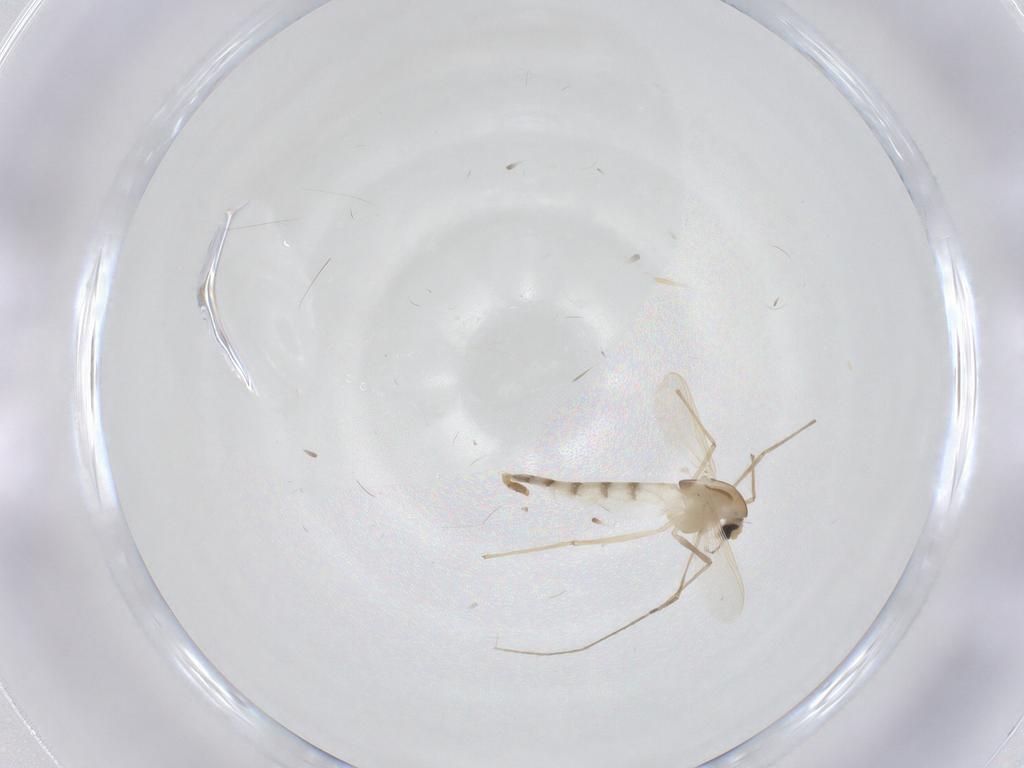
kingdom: Animalia
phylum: Arthropoda
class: Insecta
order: Diptera
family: Chironomidae
